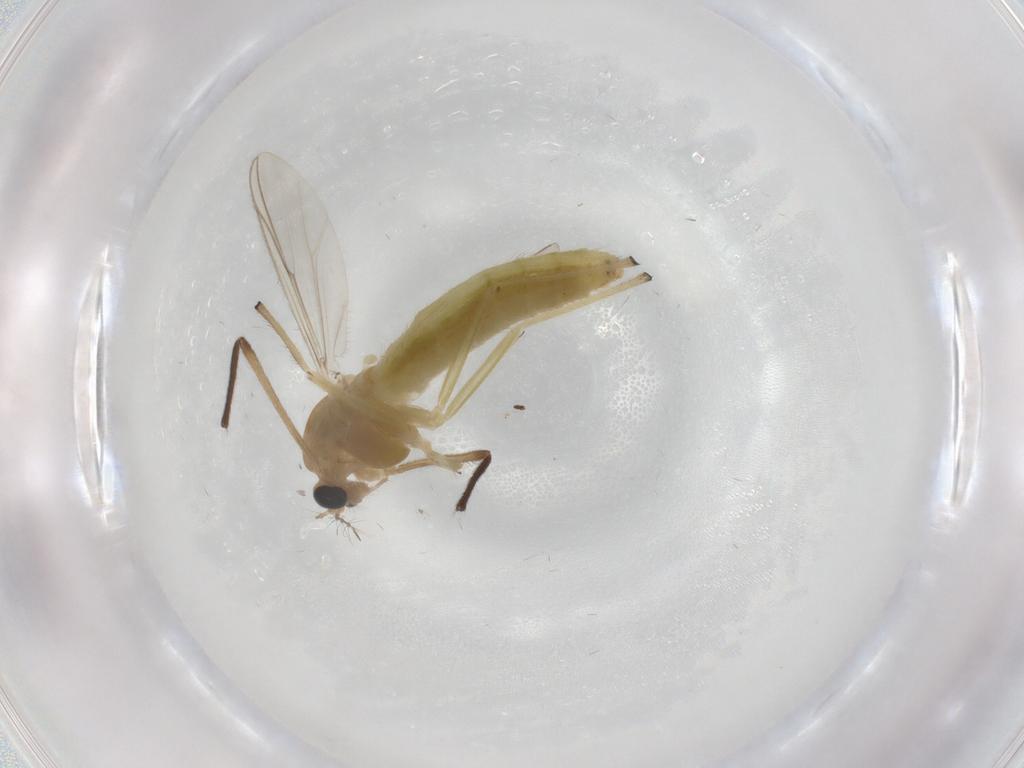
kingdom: Animalia
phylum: Arthropoda
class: Insecta
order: Diptera
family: Chironomidae
